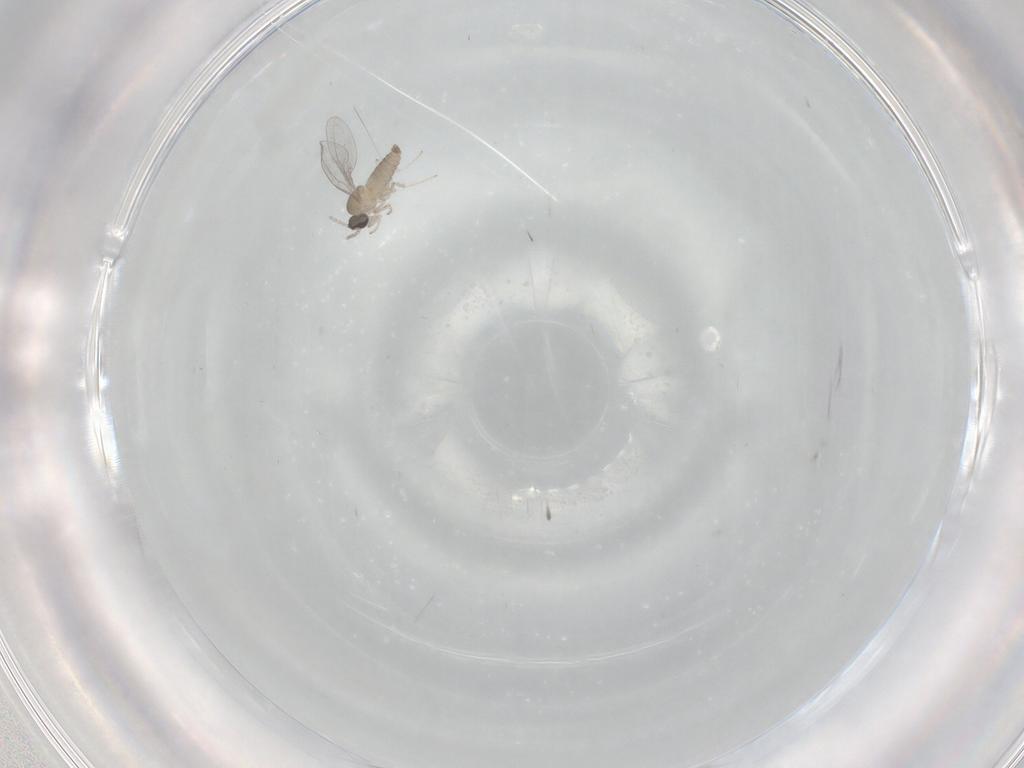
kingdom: Animalia
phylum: Arthropoda
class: Insecta
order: Diptera
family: Cecidomyiidae
